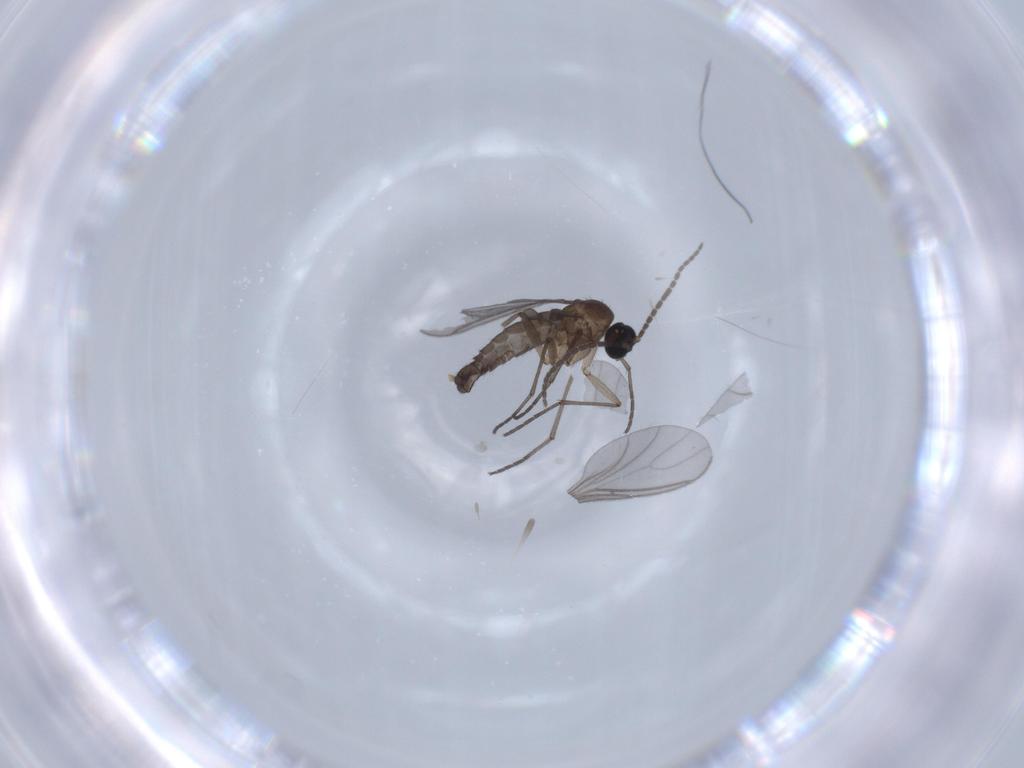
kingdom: Animalia
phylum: Arthropoda
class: Insecta
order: Diptera
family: Sciaridae
